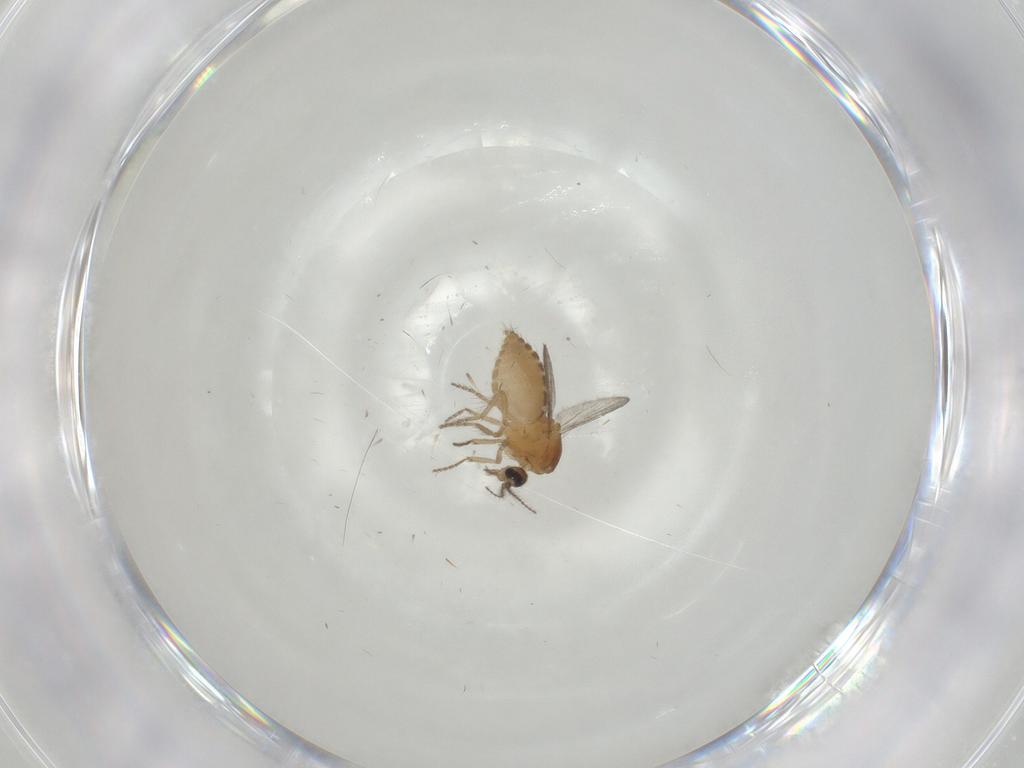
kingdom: Animalia
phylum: Arthropoda
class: Insecta
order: Diptera
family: Ceratopogonidae
